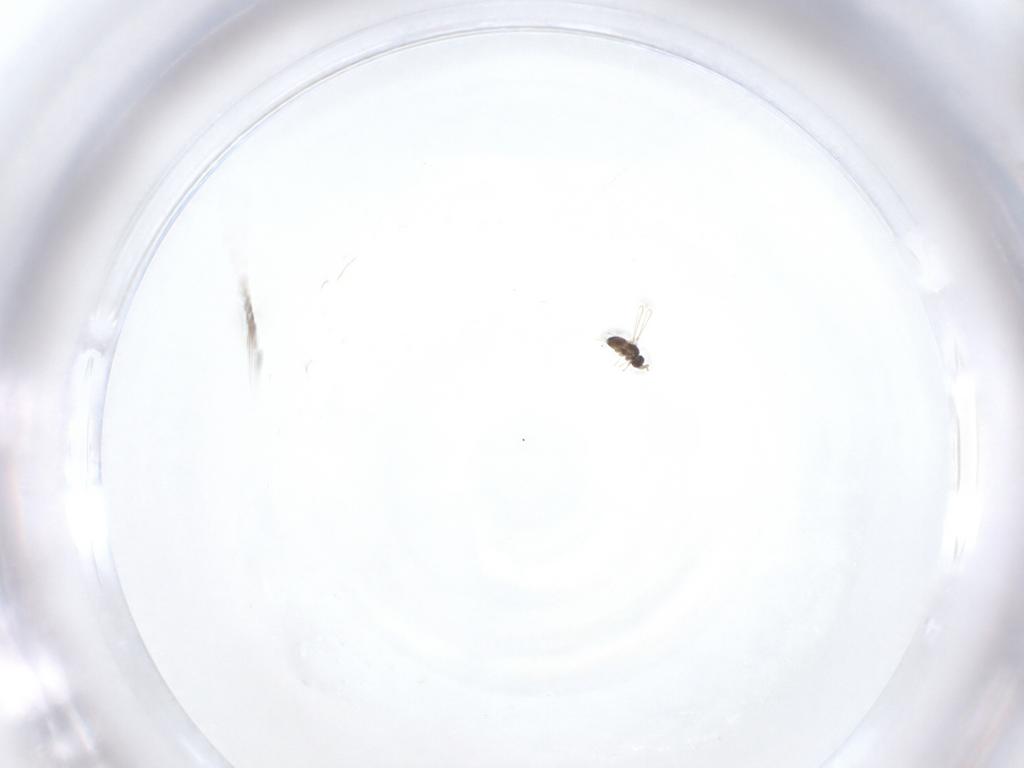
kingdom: Animalia
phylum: Arthropoda
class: Insecta
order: Hymenoptera
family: Mymaridae
